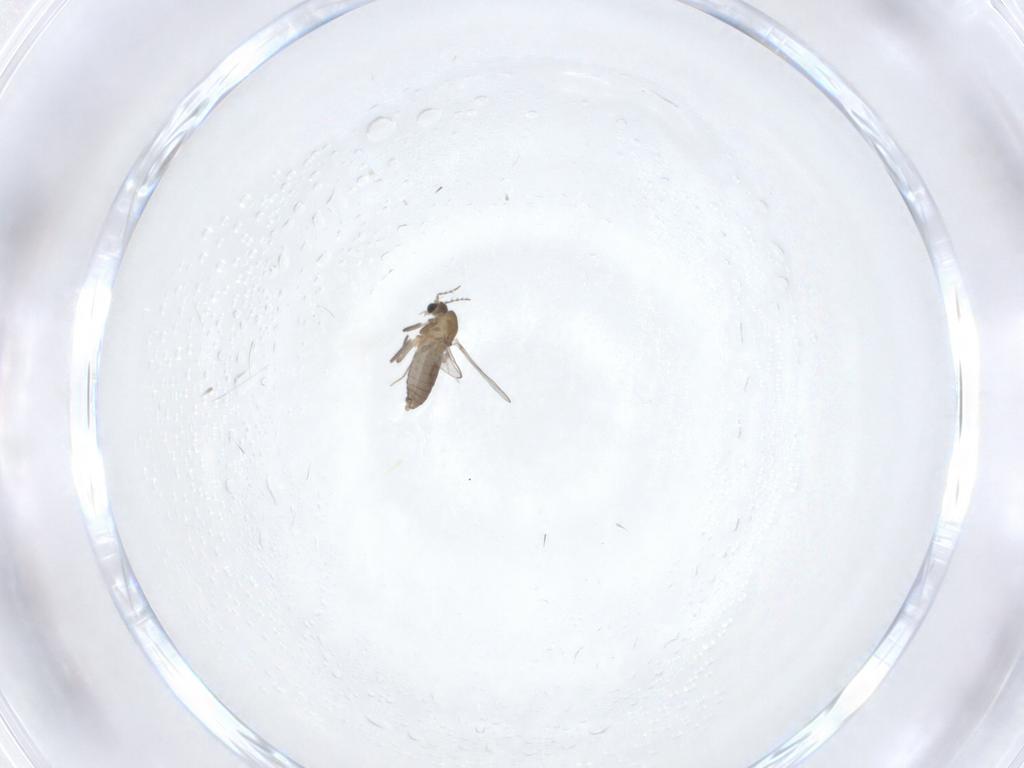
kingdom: Animalia
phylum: Arthropoda
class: Insecta
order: Diptera
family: Chironomidae
